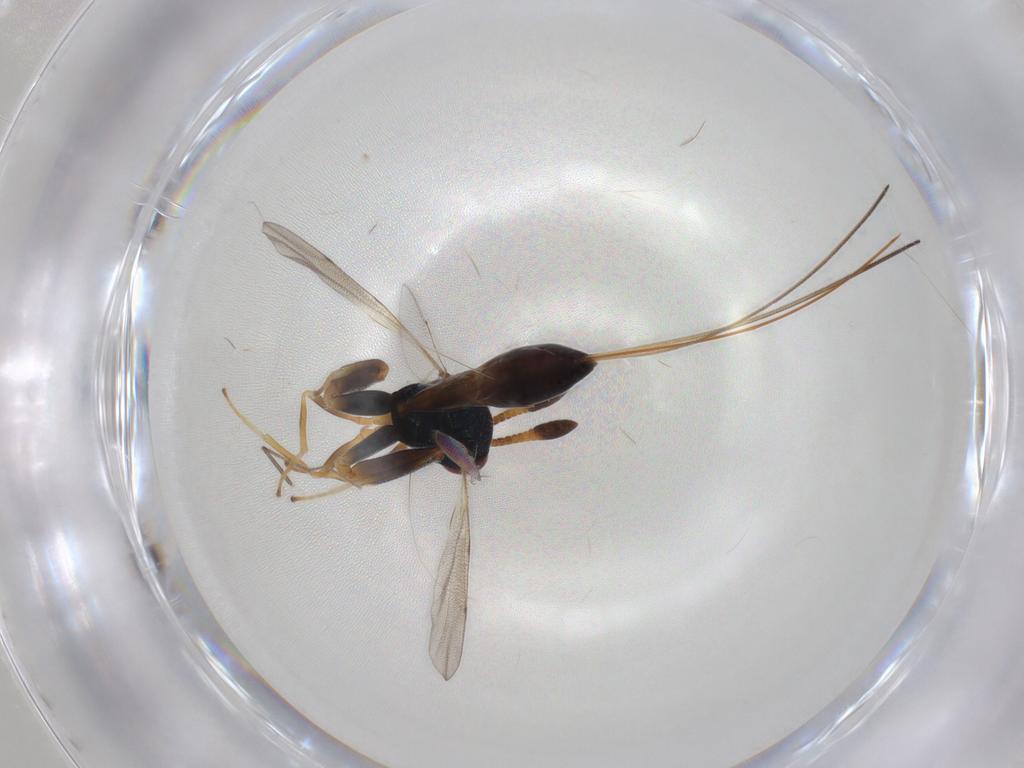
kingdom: Animalia
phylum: Arthropoda
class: Insecta
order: Hymenoptera
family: Torymidae
